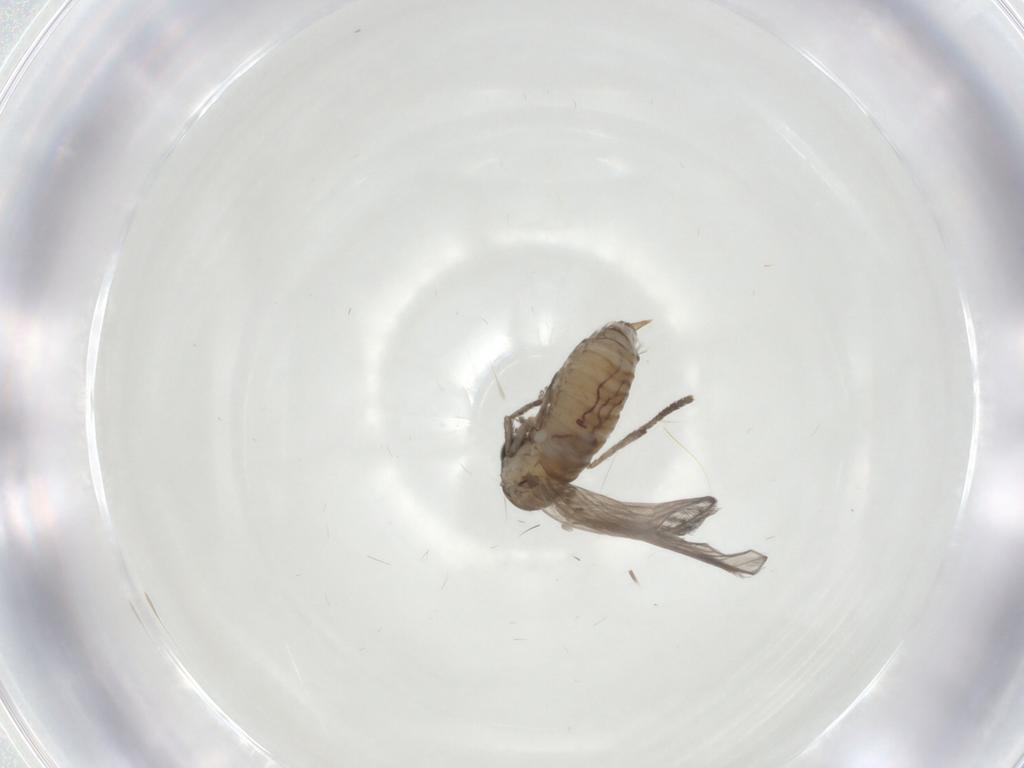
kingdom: Animalia
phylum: Arthropoda
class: Insecta
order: Diptera
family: Psychodidae
